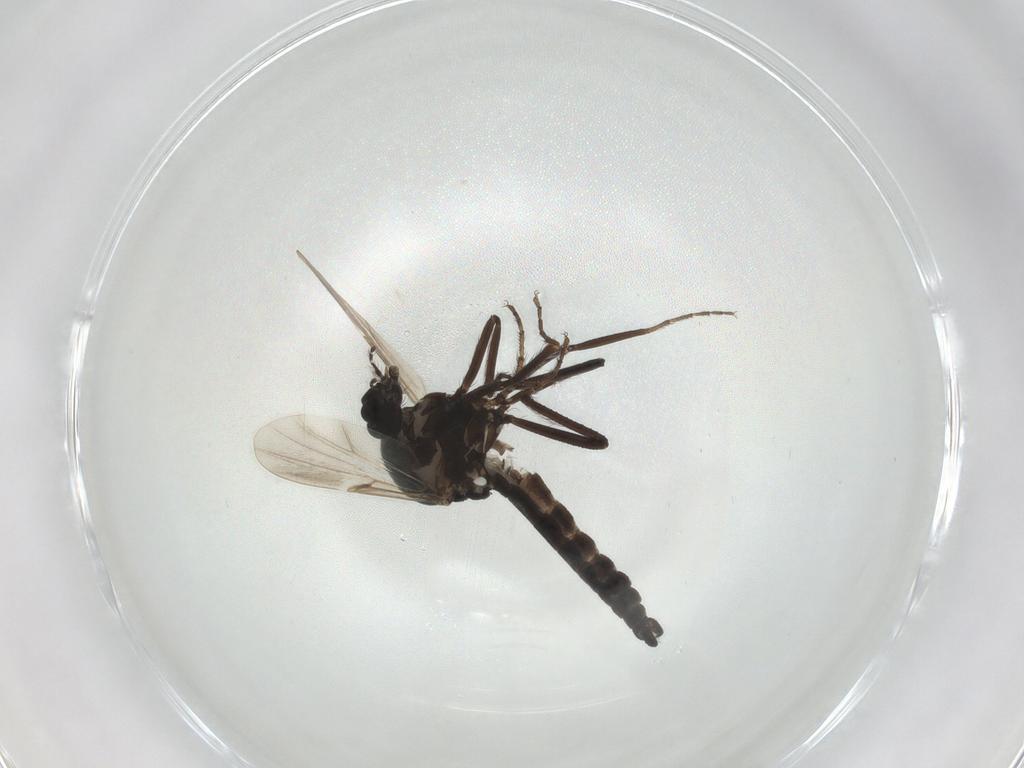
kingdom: Animalia
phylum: Arthropoda
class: Insecta
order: Diptera
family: Ceratopogonidae
